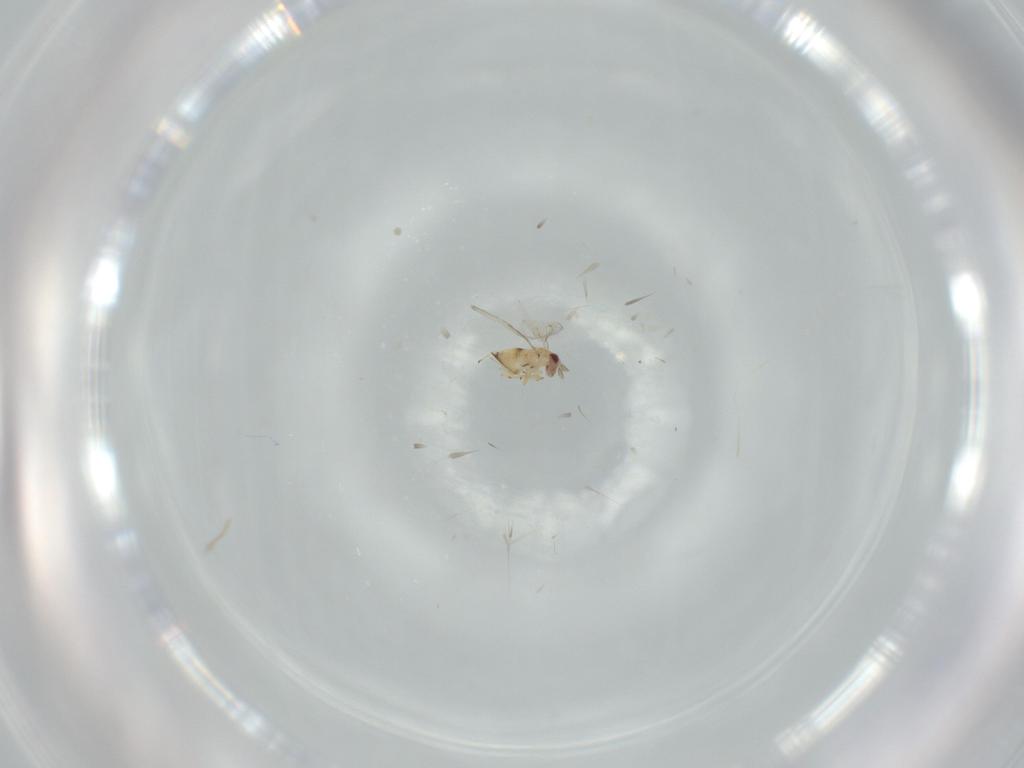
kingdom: Animalia
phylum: Arthropoda
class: Insecta
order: Hymenoptera
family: Trichogrammatidae
